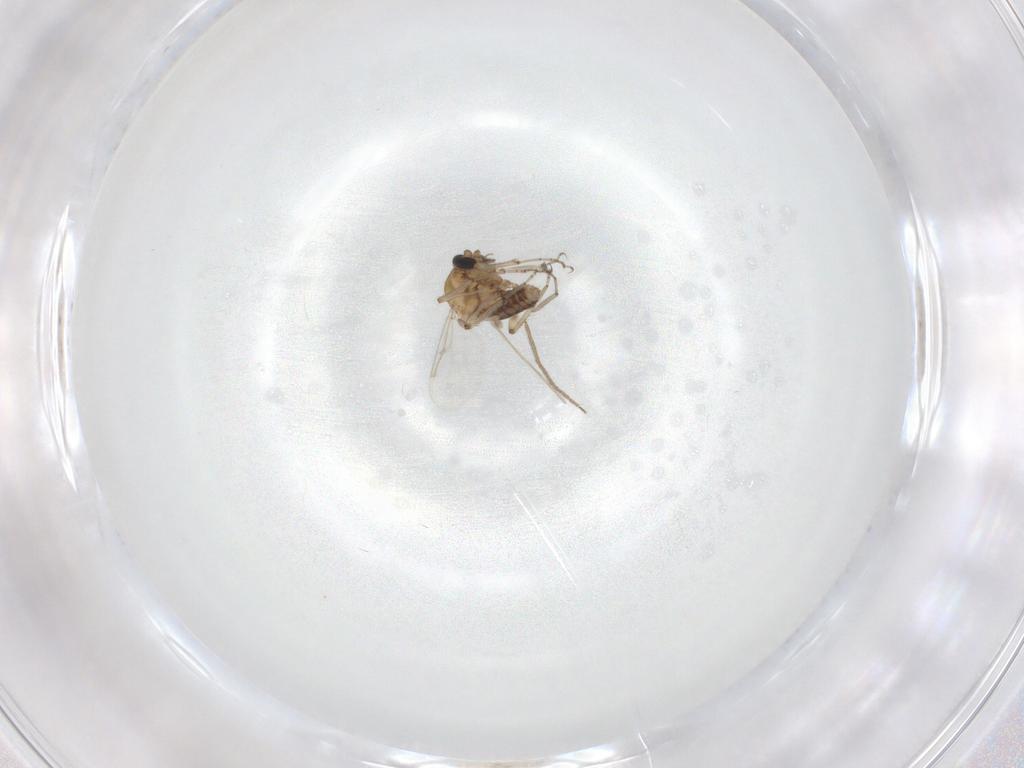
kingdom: Animalia
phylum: Arthropoda
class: Insecta
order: Diptera
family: Ceratopogonidae
